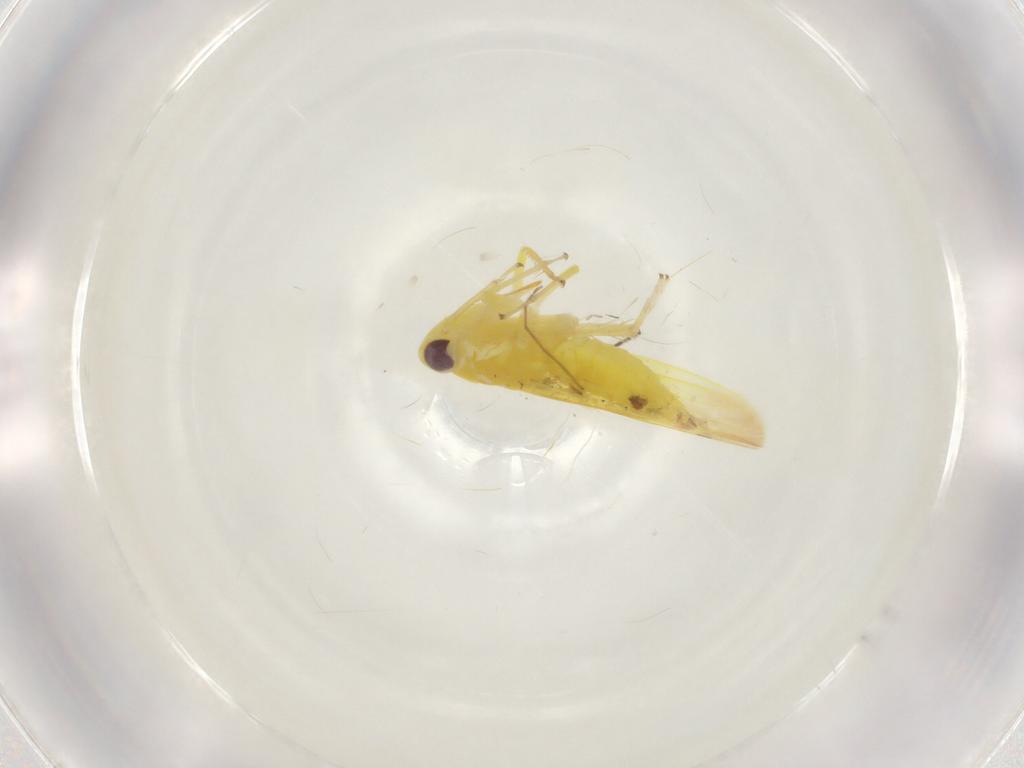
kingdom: Animalia
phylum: Arthropoda
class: Insecta
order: Hemiptera
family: Cicadellidae
